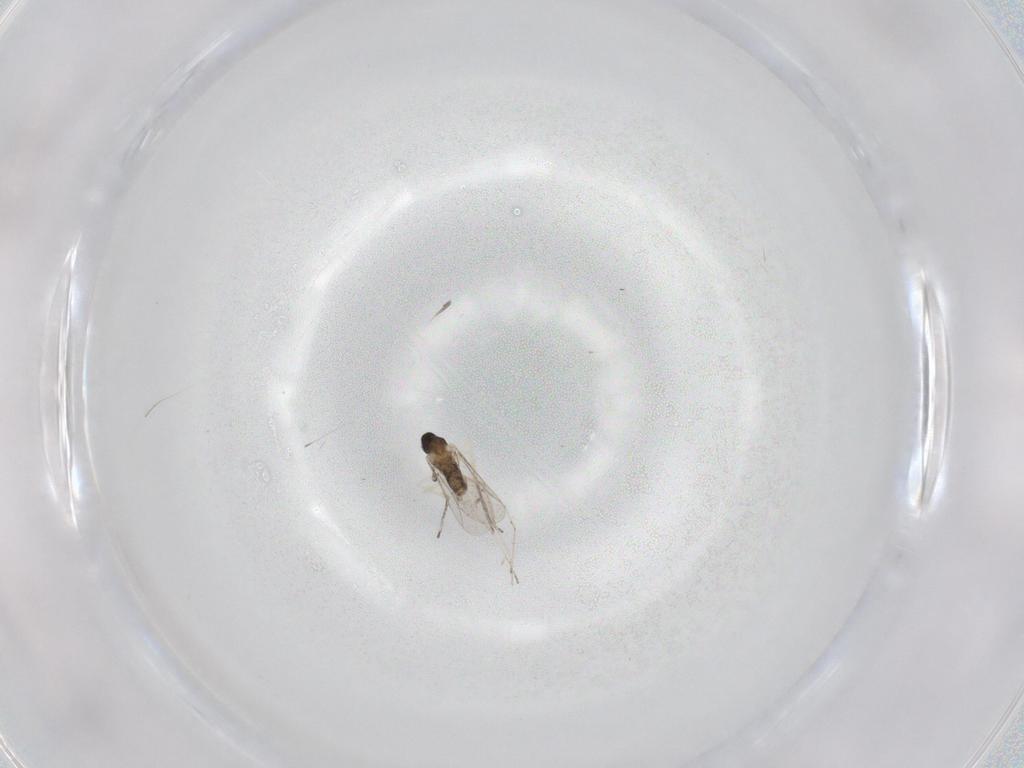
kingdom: Animalia
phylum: Arthropoda
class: Insecta
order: Diptera
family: Cecidomyiidae
